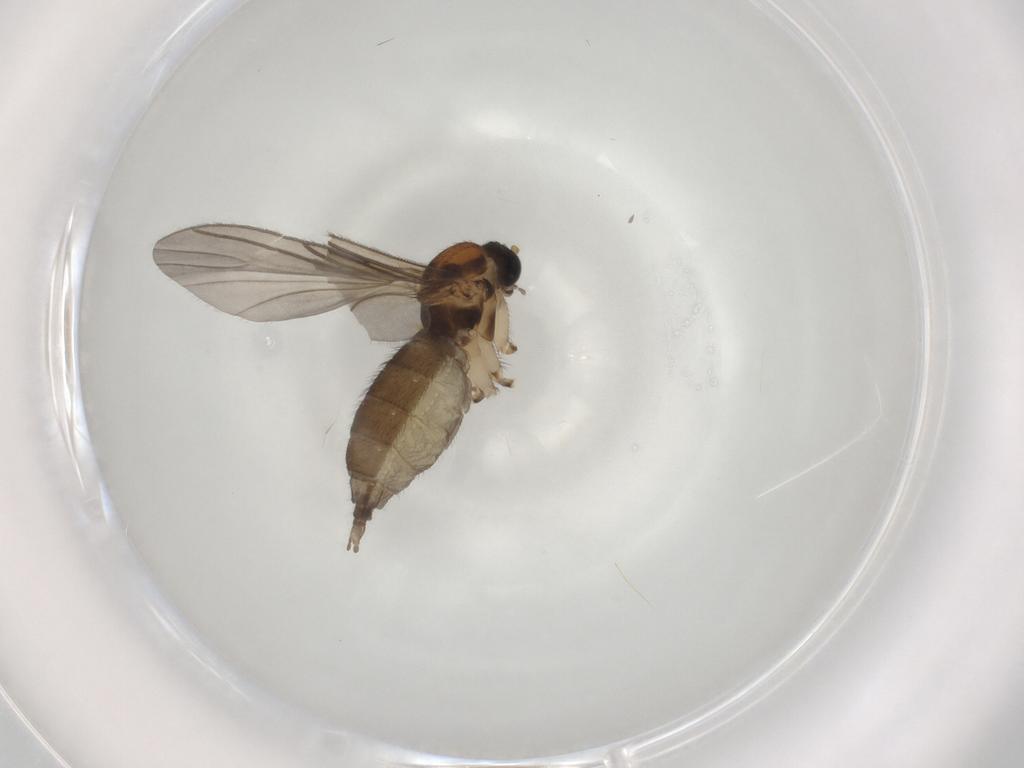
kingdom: Animalia
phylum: Arthropoda
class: Insecta
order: Diptera
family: Sciaridae
